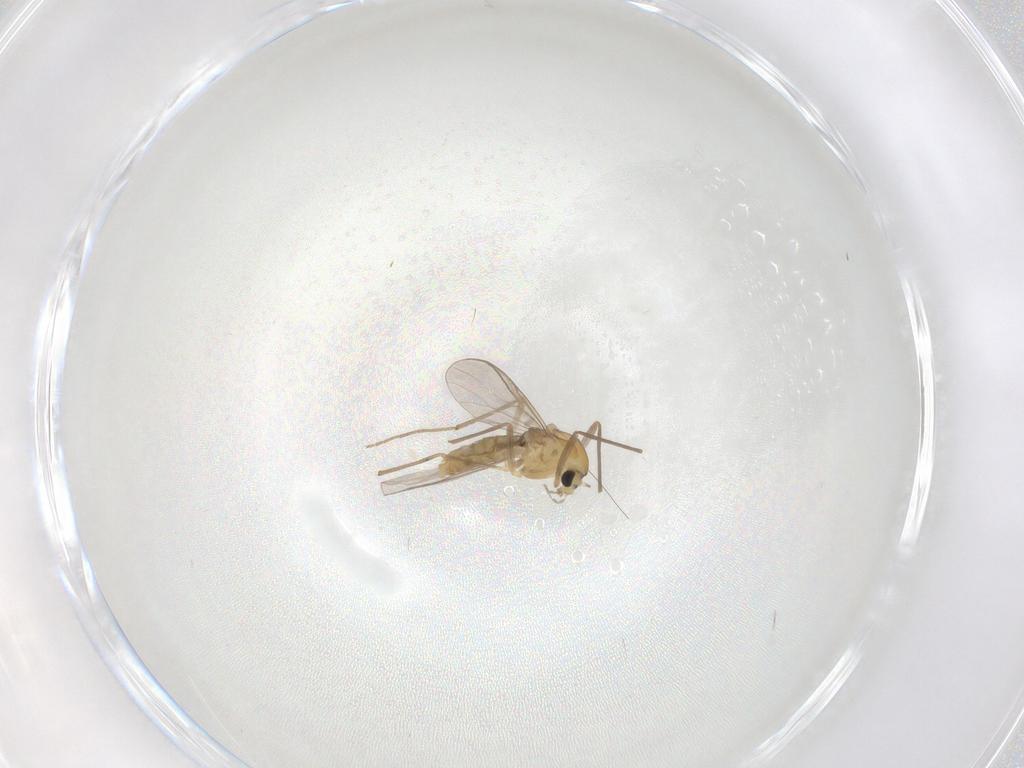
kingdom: Animalia
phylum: Arthropoda
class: Insecta
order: Diptera
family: Chironomidae
